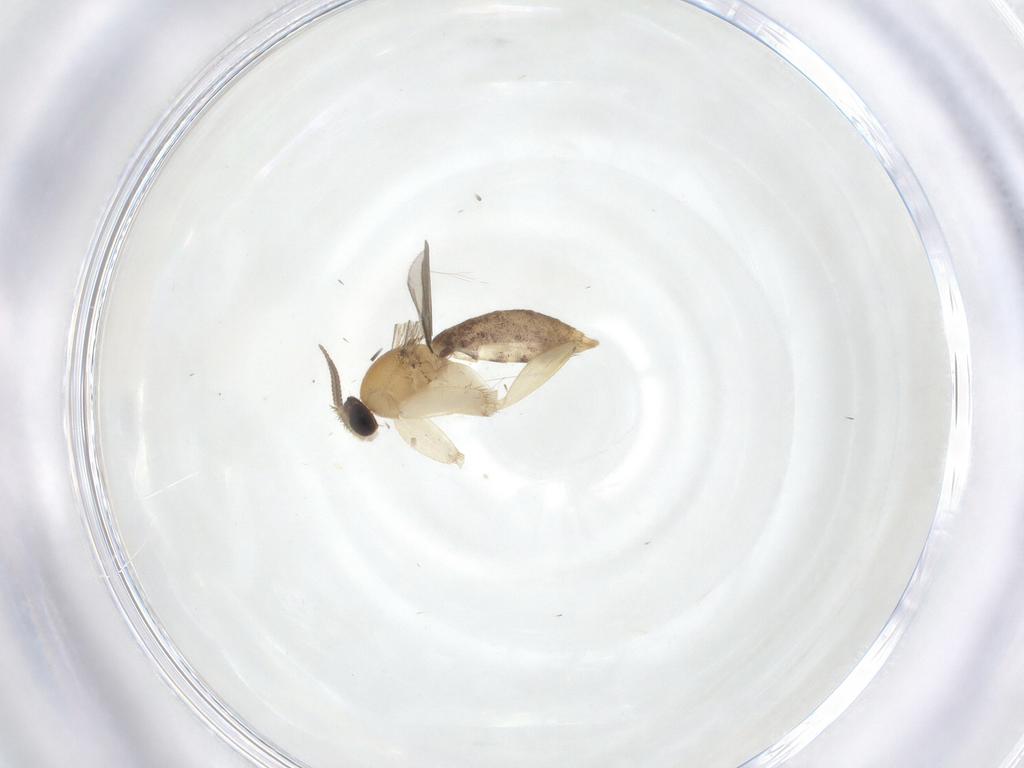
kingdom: Animalia
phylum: Arthropoda
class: Insecta
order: Diptera
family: Mycetophilidae
